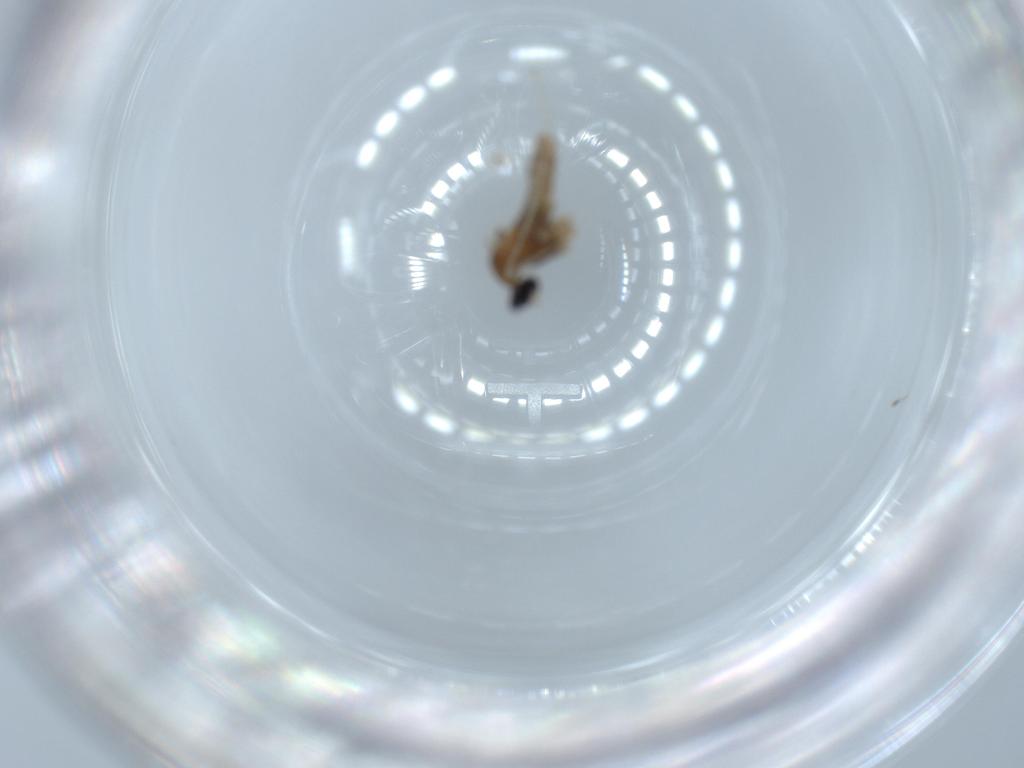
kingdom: Animalia
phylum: Arthropoda
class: Insecta
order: Diptera
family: Cecidomyiidae
